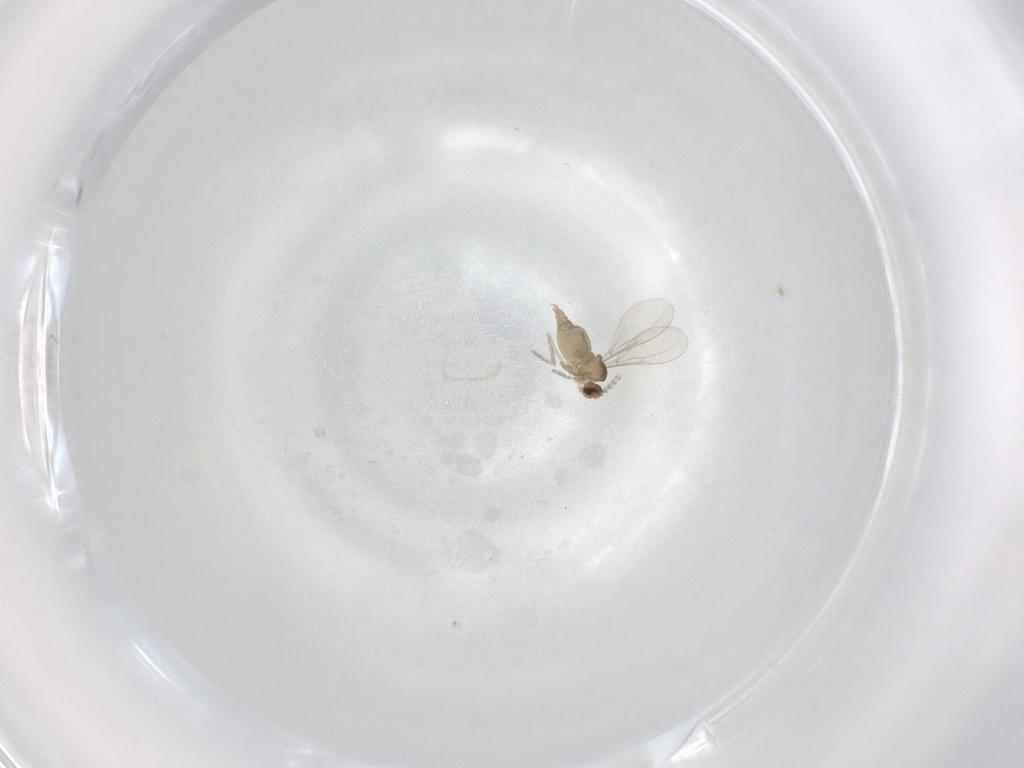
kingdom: Animalia
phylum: Arthropoda
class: Insecta
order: Diptera
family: Cecidomyiidae
